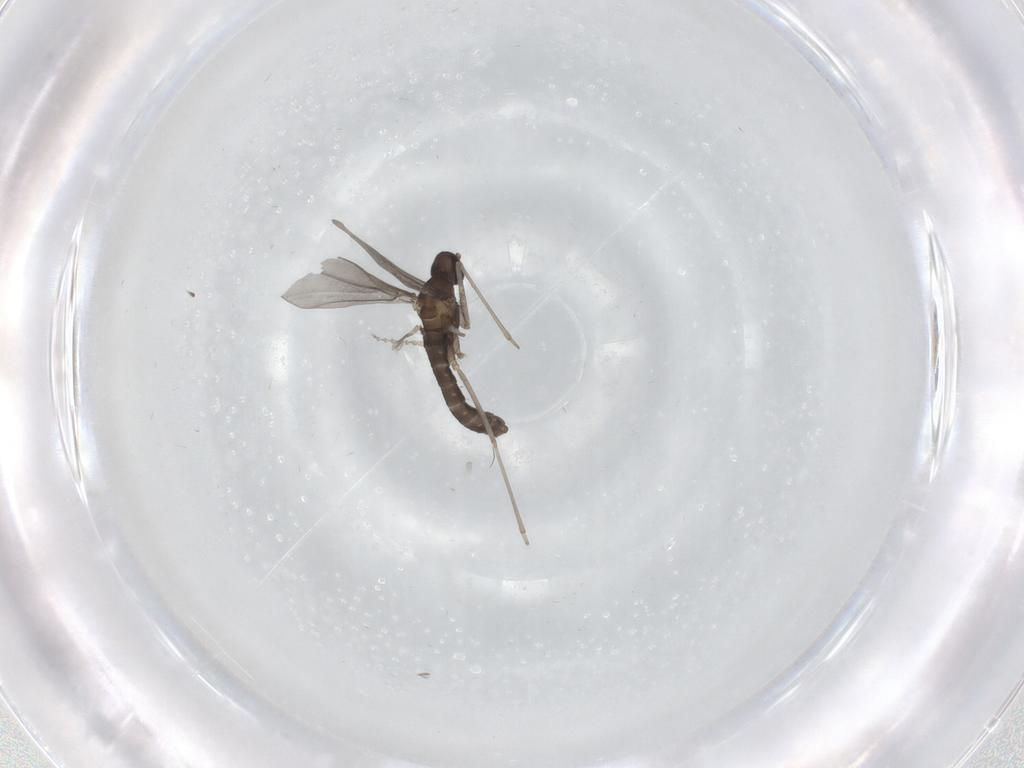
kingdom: Animalia
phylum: Arthropoda
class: Insecta
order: Diptera
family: Cecidomyiidae
